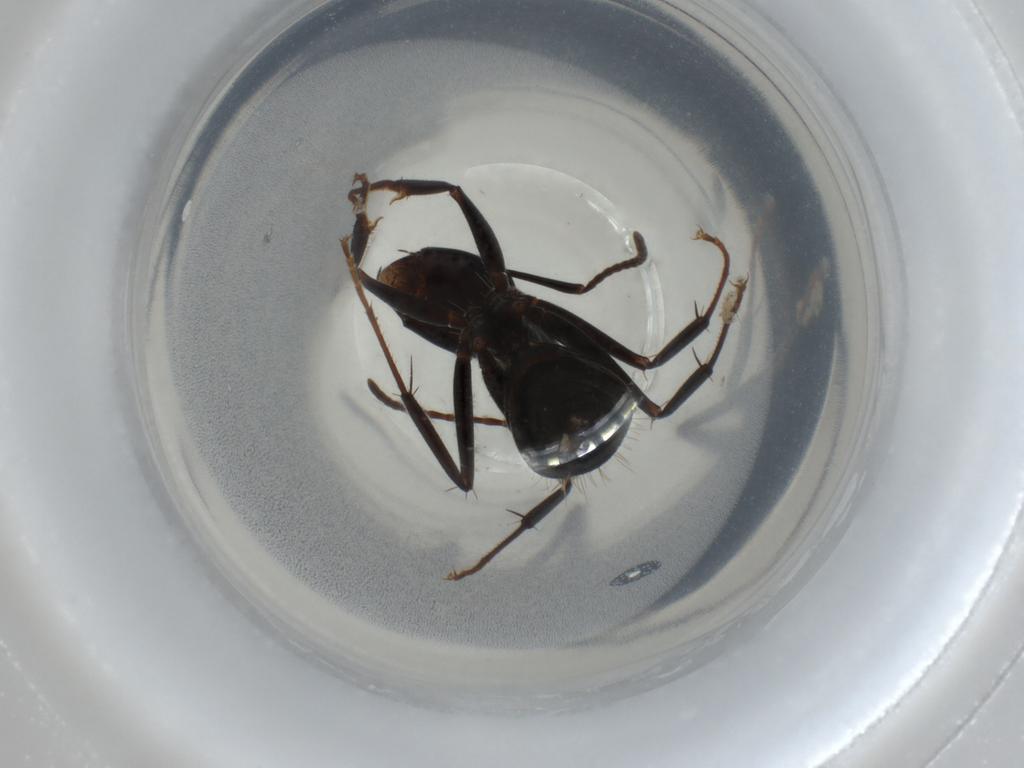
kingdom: Animalia
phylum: Arthropoda
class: Insecta
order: Hymenoptera
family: Formicidae
